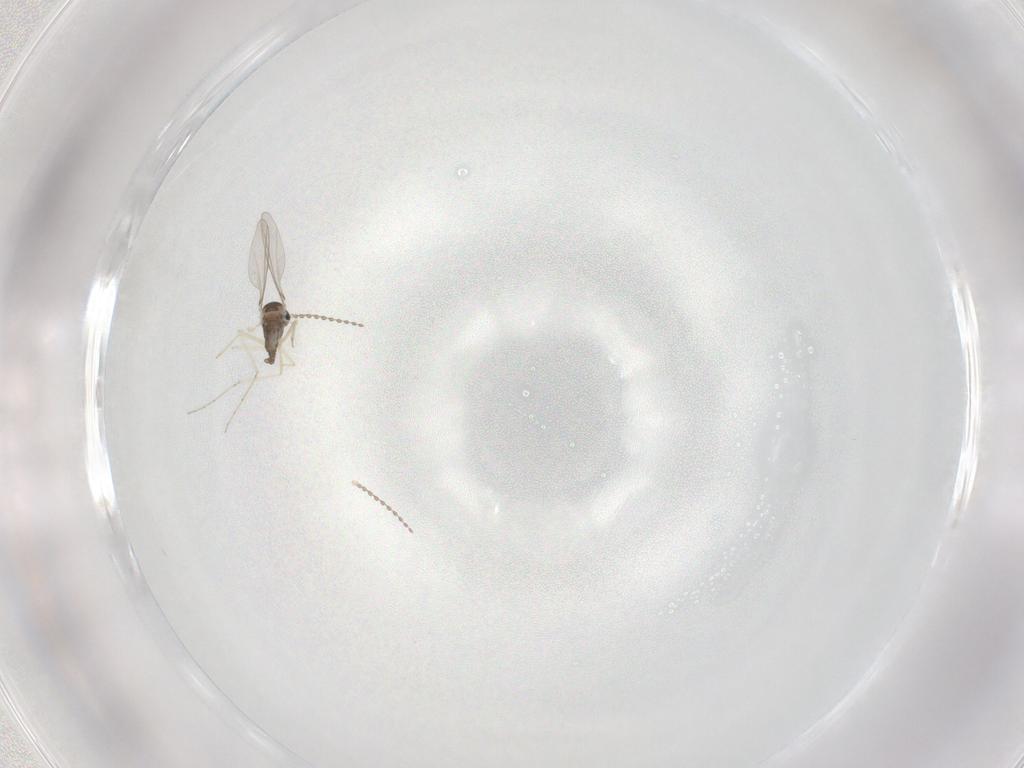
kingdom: Animalia
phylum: Arthropoda
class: Insecta
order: Diptera
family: Cecidomyiidae
